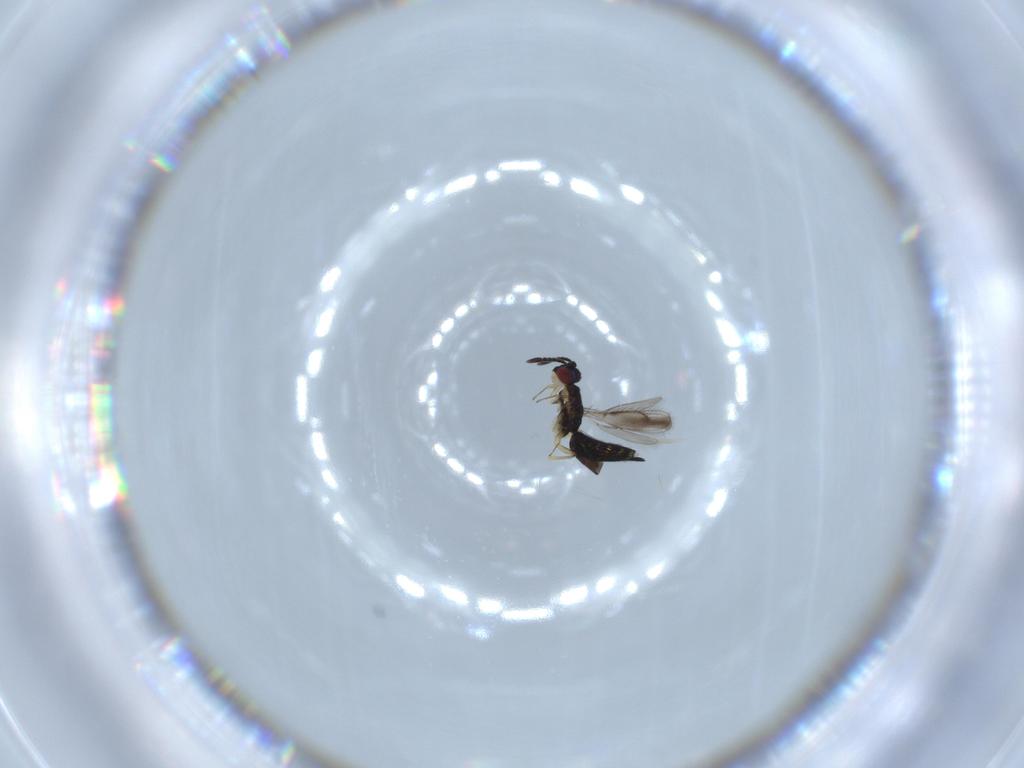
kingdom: Animalia
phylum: Arthropoda
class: Insecta
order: Hymenoptera
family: Pteromalidae
